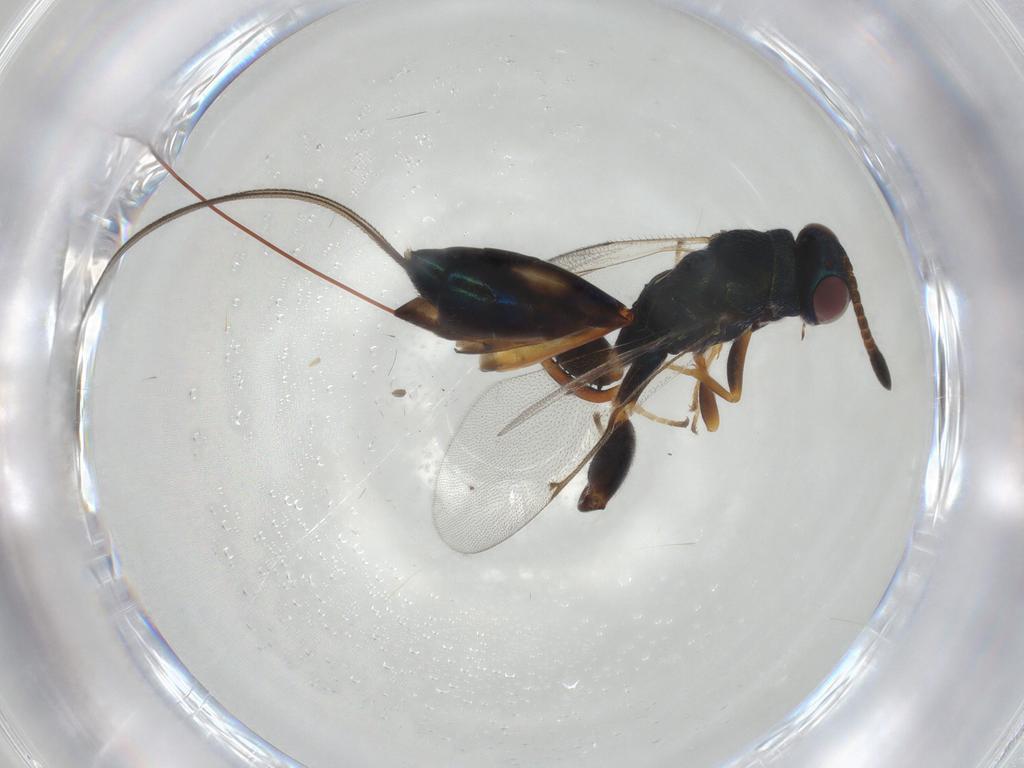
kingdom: Animalia
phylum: Arthropoda
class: Insecta
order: Hymenoptera
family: Torymidae
